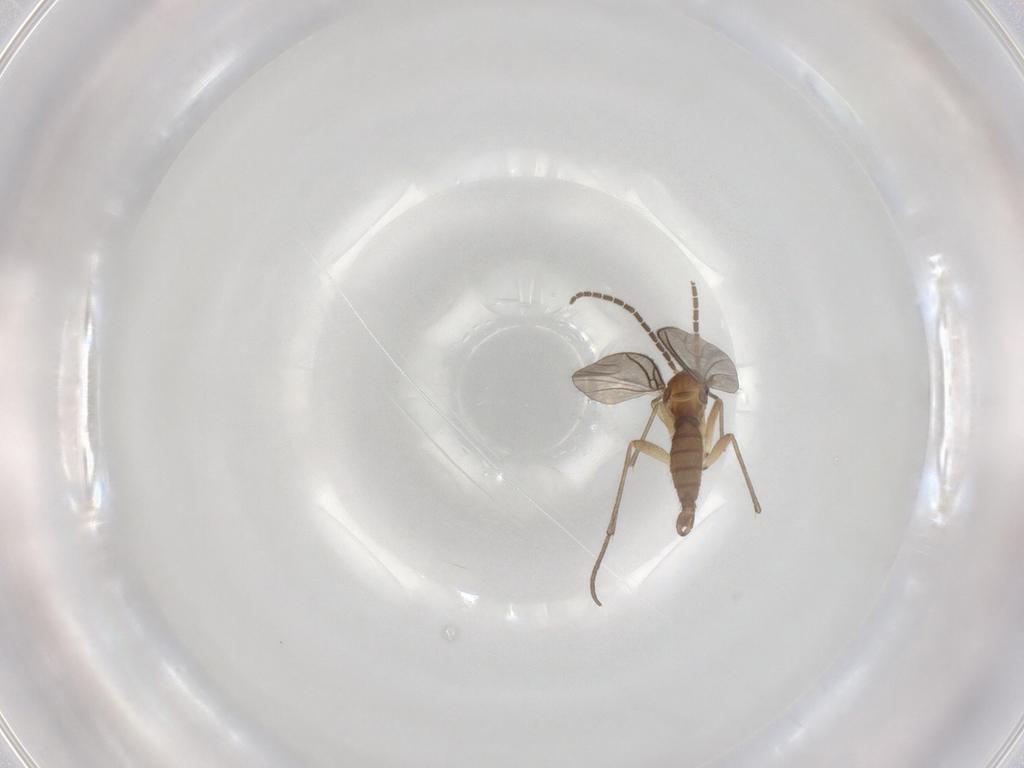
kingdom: Animalia
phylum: Arthropoda
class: Insecta
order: Diptera
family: Sciaridae
